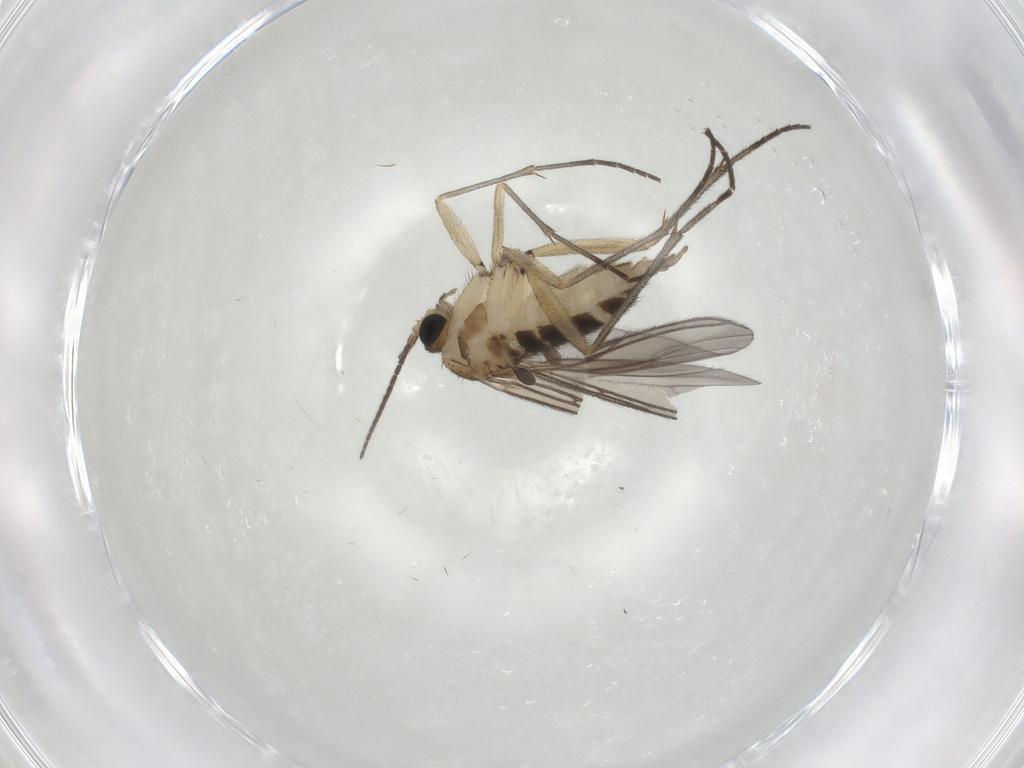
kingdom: Animalia
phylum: Arthropoda
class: Insecta
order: Diptera
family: Sciaridae
